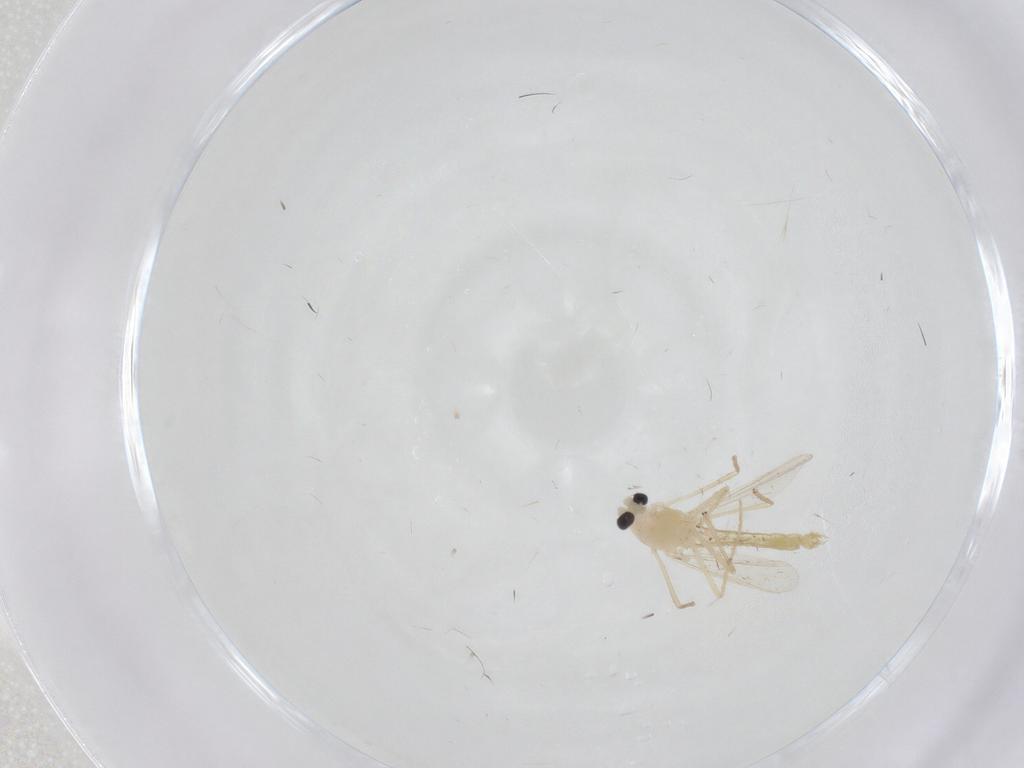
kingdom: Animalia
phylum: Arthropoda
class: Insecta
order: Diptera
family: Chironomidae
